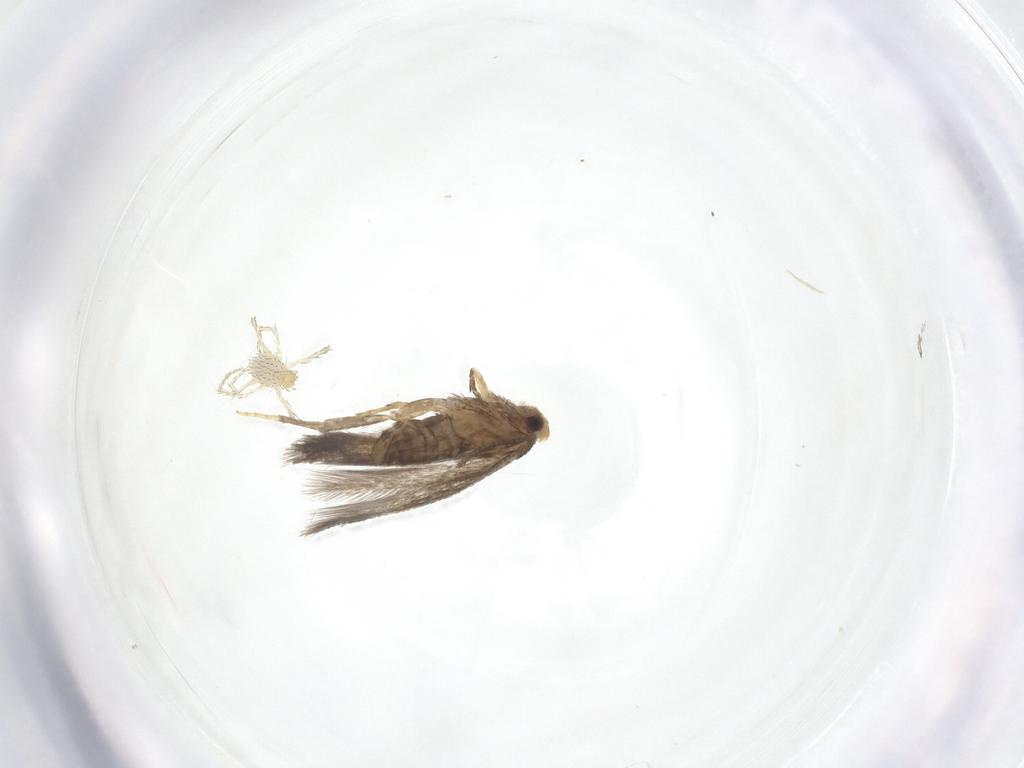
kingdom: Animalia
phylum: Arthropoda
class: Insecta
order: Lepidoptera
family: Nepticulidae
